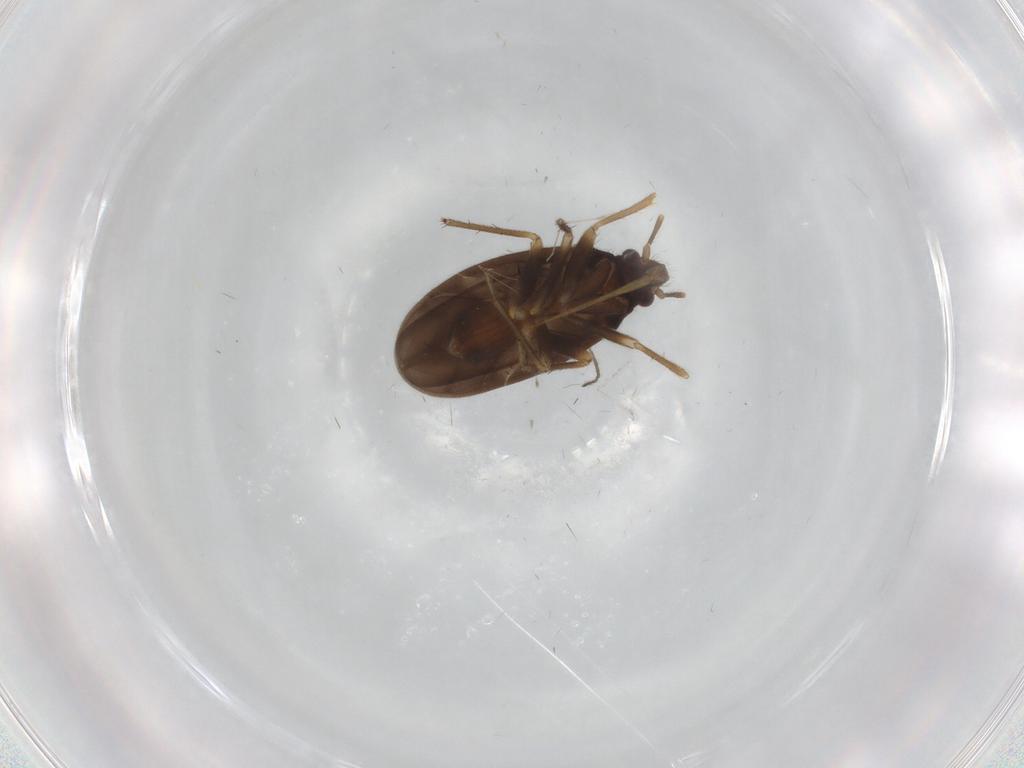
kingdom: Animalia
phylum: Arthropoda
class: Insecta
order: Hemiptera
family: Ceratocombidae
